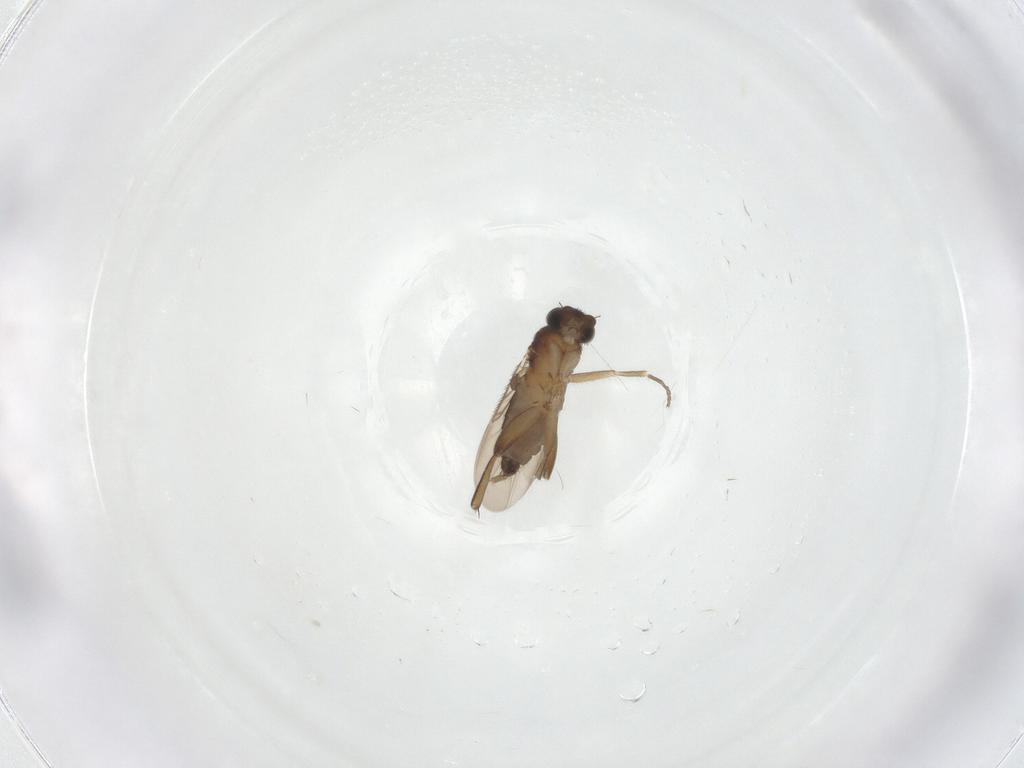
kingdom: Animalia
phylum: Arthropoda
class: Insecta
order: Diptera
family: Phoridae
